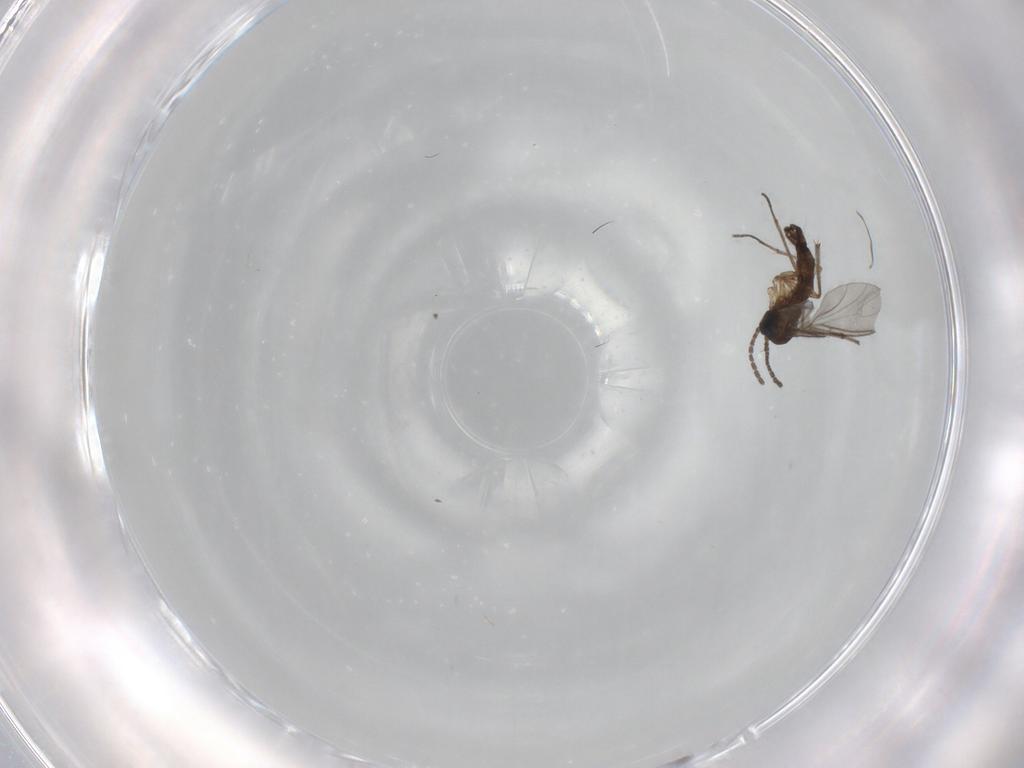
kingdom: Animalia
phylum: Arthropoda
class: Insecta
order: Diptera
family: Sciaridae
